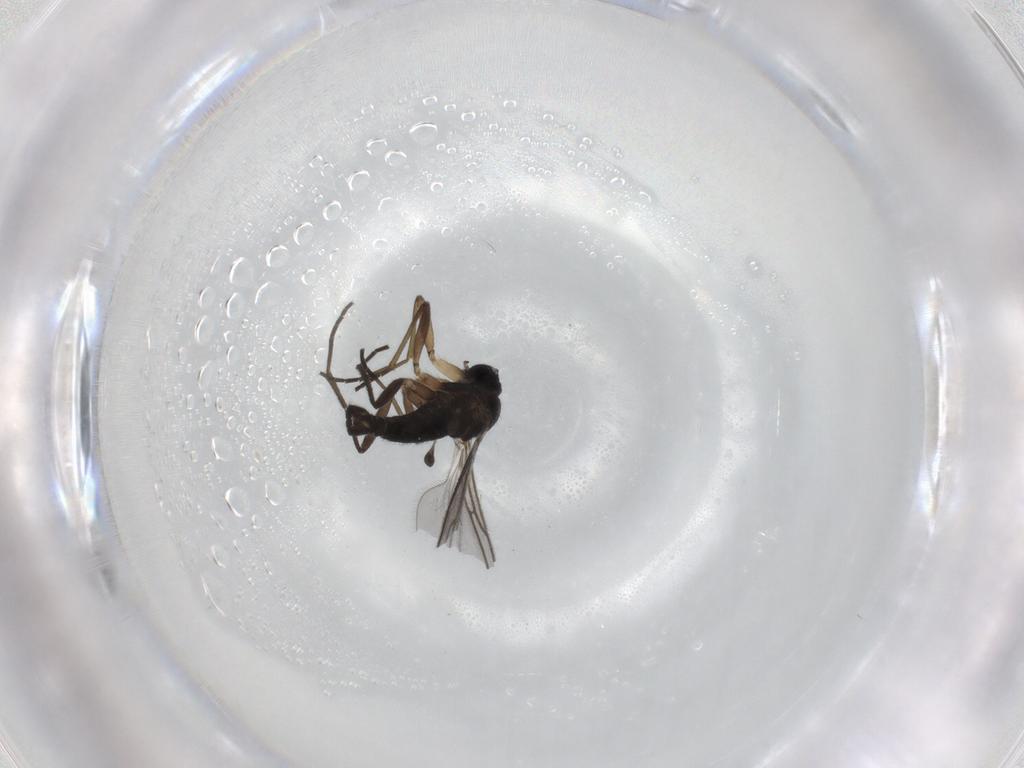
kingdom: Animalia
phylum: Arthropoda
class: Insecta
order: Diptera
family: Sciaridae
